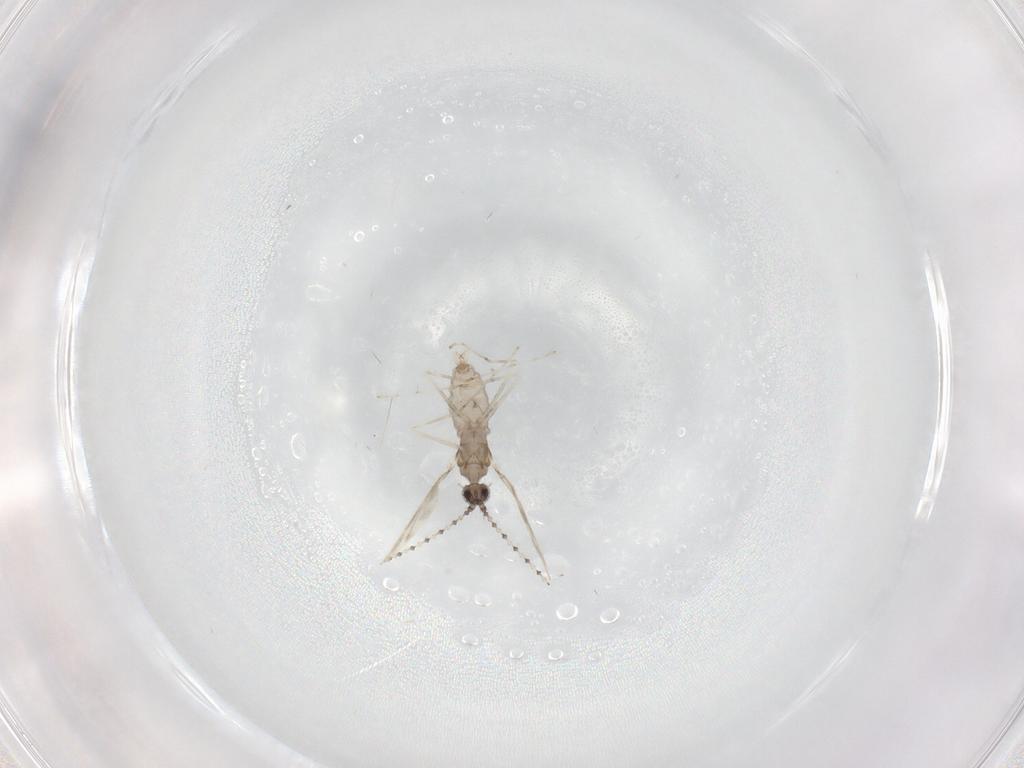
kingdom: Animalia
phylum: Arthropoda
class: Insecta
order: Diptera
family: Cecidomyiidae
